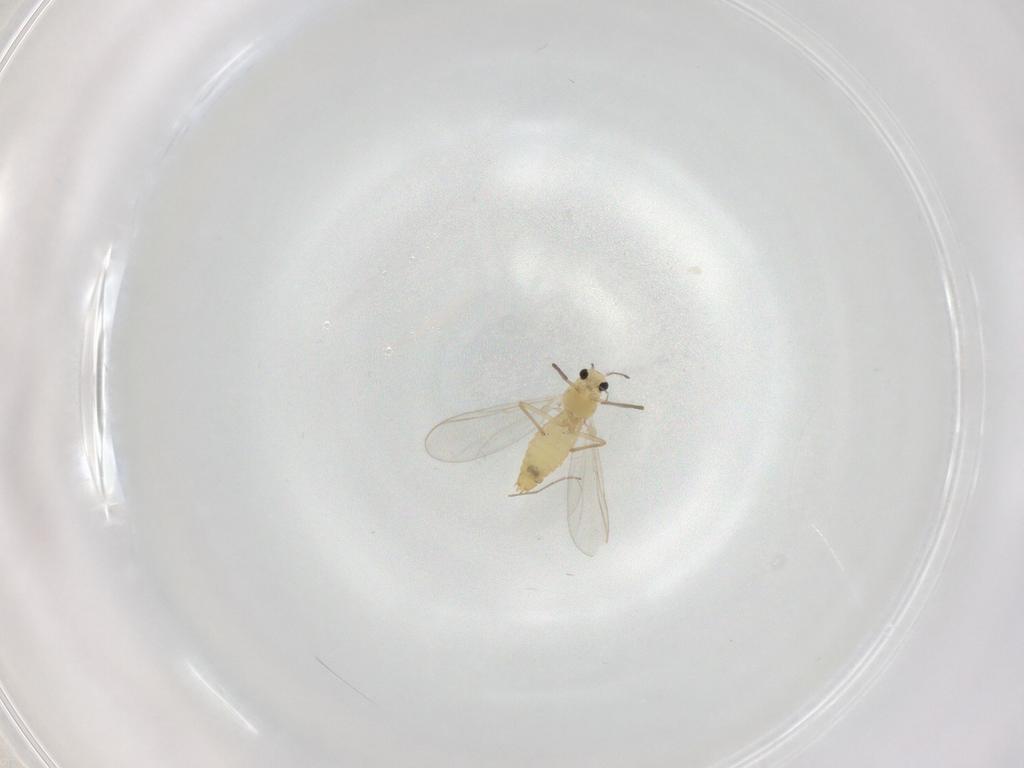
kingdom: Animalia
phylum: Arthropoda
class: Insecta
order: Diptera
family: Chironomidae
